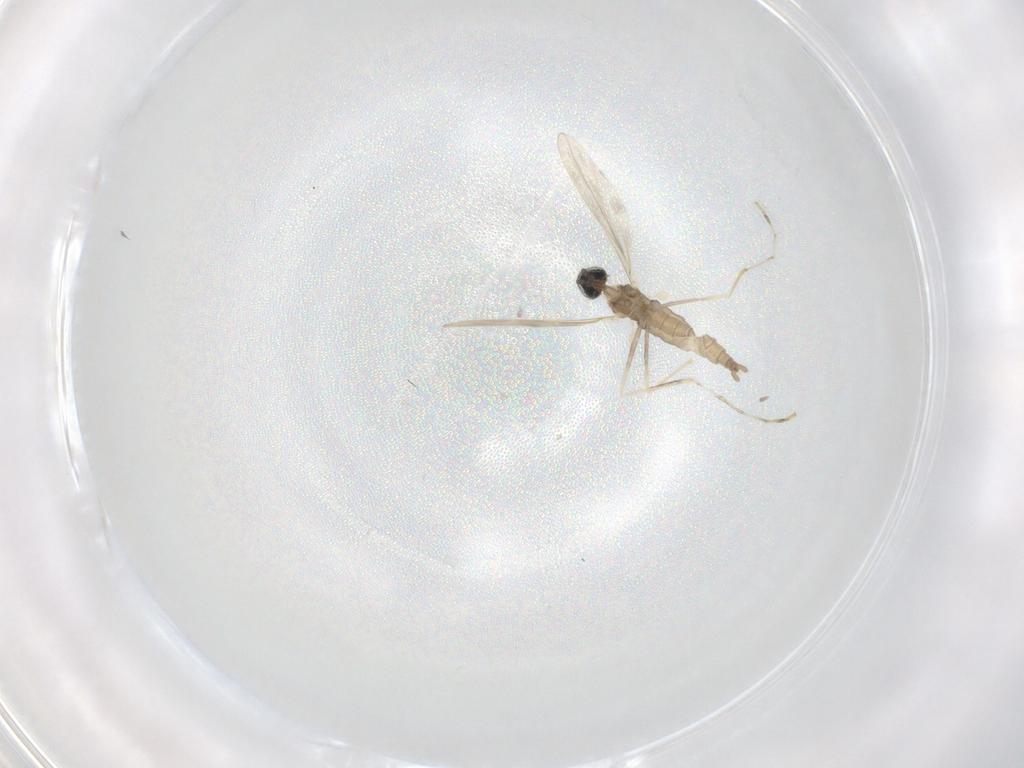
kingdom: Animalia
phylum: Arthropoda
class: Insecta
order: Diptera
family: Cecidomyiidae
